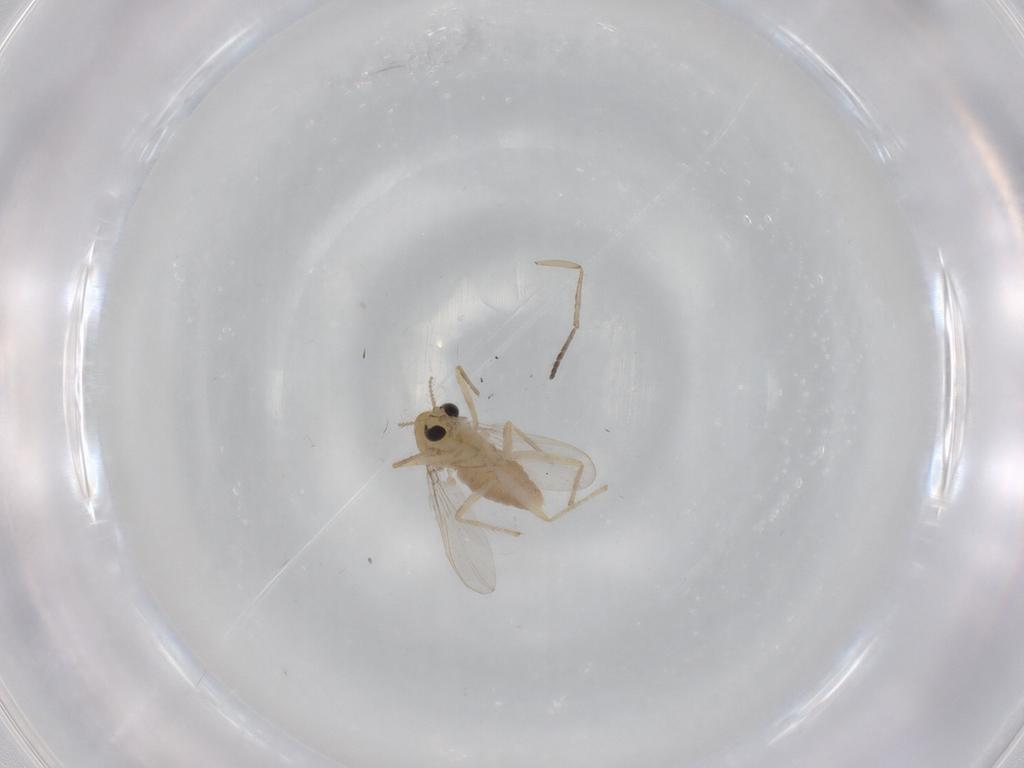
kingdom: Animalia
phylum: Arthropoda
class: Insecta
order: Diptera
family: Chironomidae
